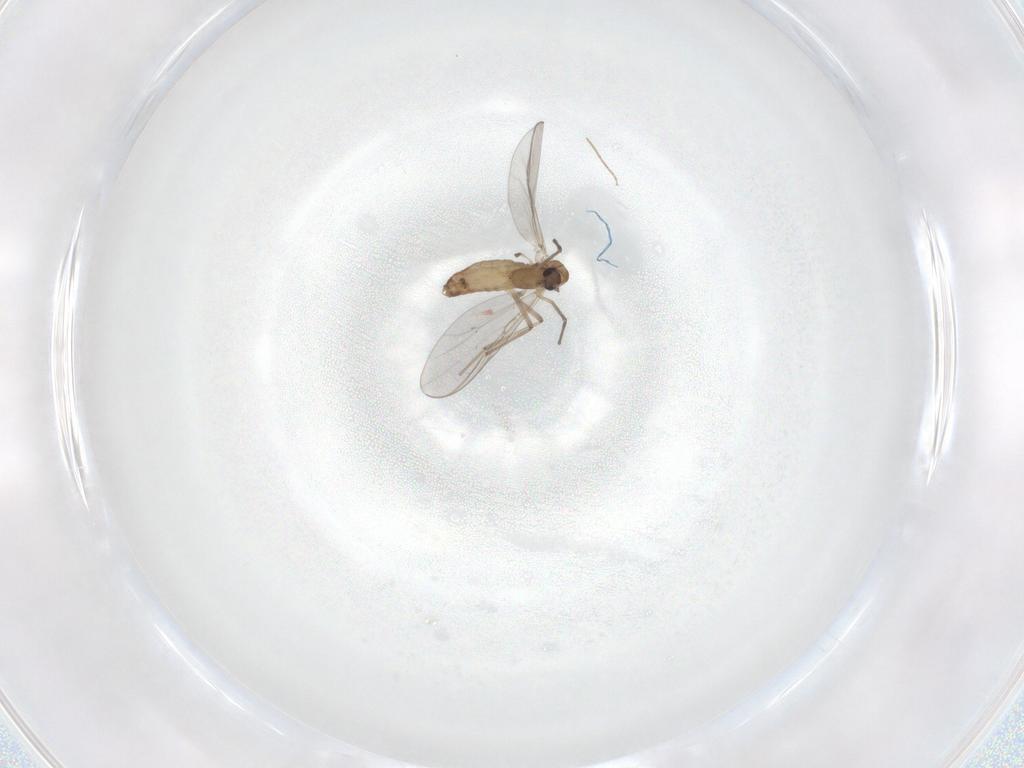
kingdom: Animalia
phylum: Arthropoda
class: Insecta
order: Diptera
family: Chironomidae
